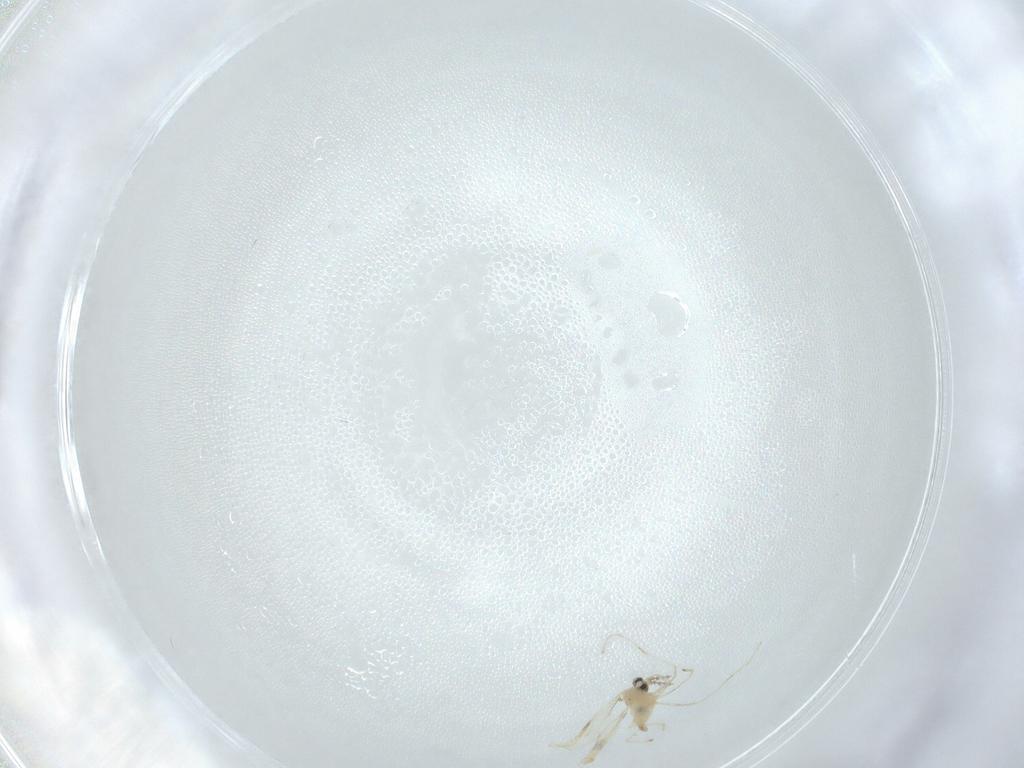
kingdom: Animalia
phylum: Arthropoda
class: Insecta
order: Diptera
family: Cecidomyiidae
